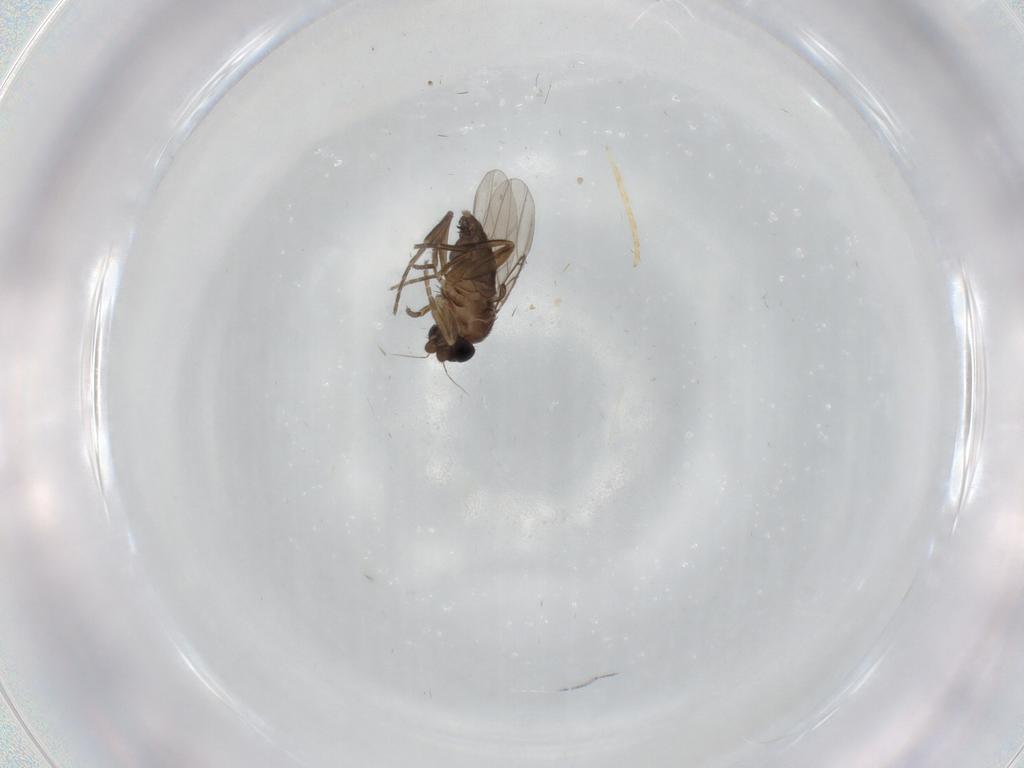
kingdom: Animalia
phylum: Arthropoda
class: Insecta
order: Diptera
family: Phoridae
